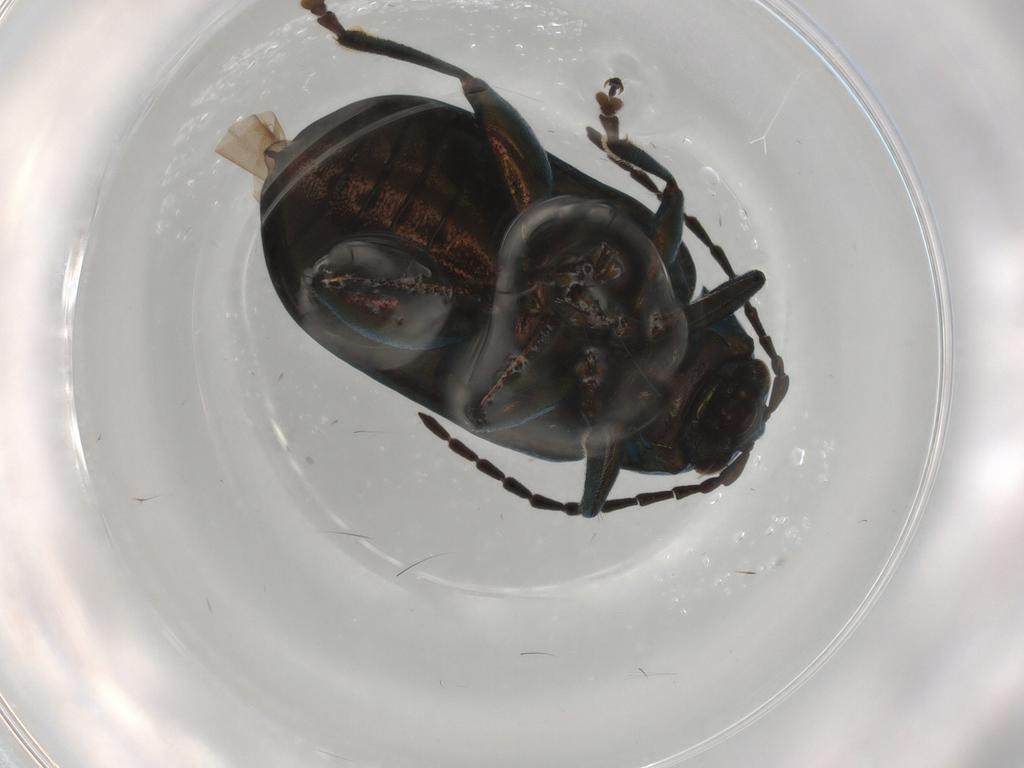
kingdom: Animalia
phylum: Arthropoda
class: Insecta
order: Coleoptera
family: Chrysomelidae
